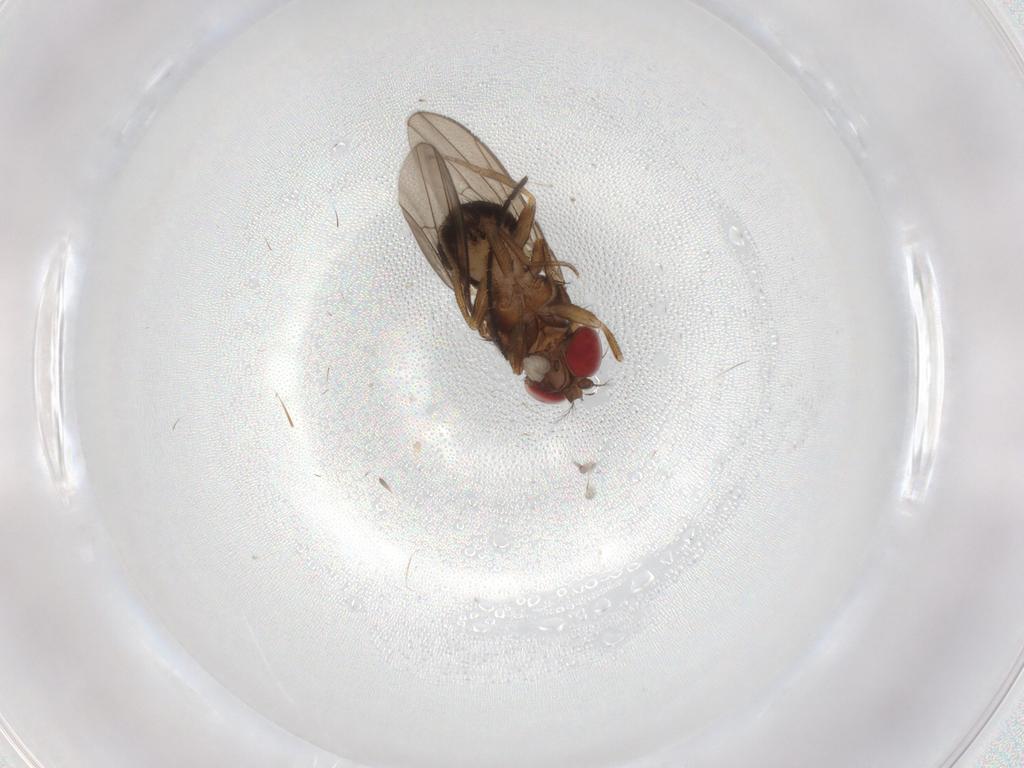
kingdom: Animalia
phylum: Arthropoda
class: Insecta
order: Diptera
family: Drosophilidae
